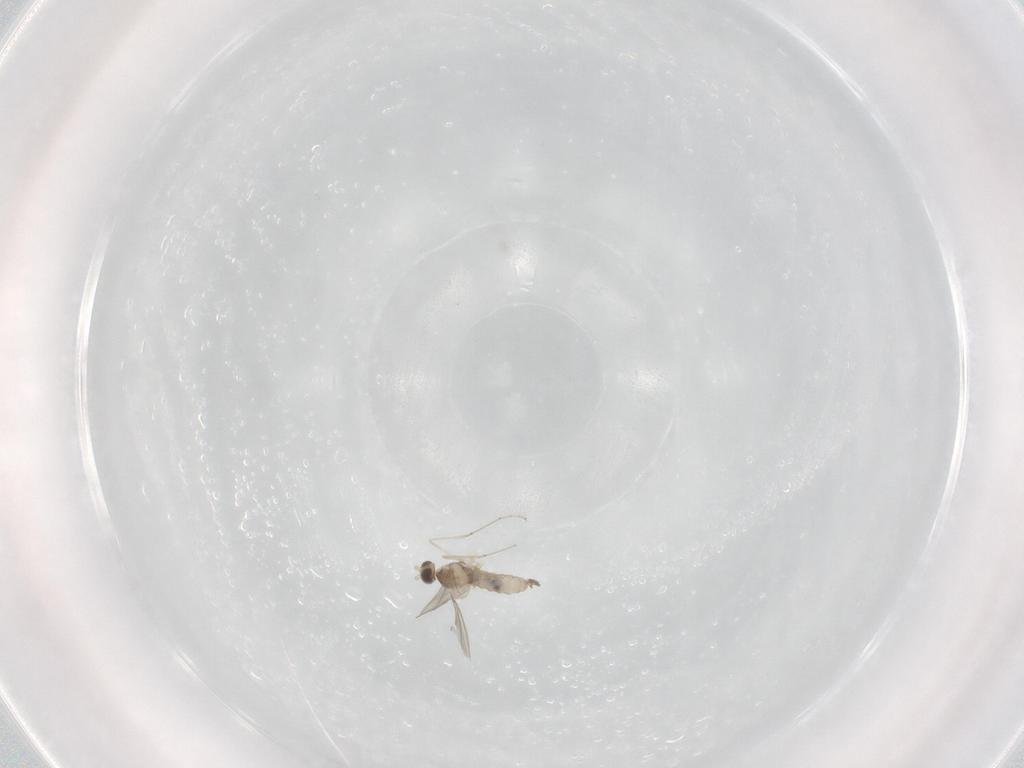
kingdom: Animalia
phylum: Arthropoda
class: Insecta
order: Diptera
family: Cecidomyiidae
